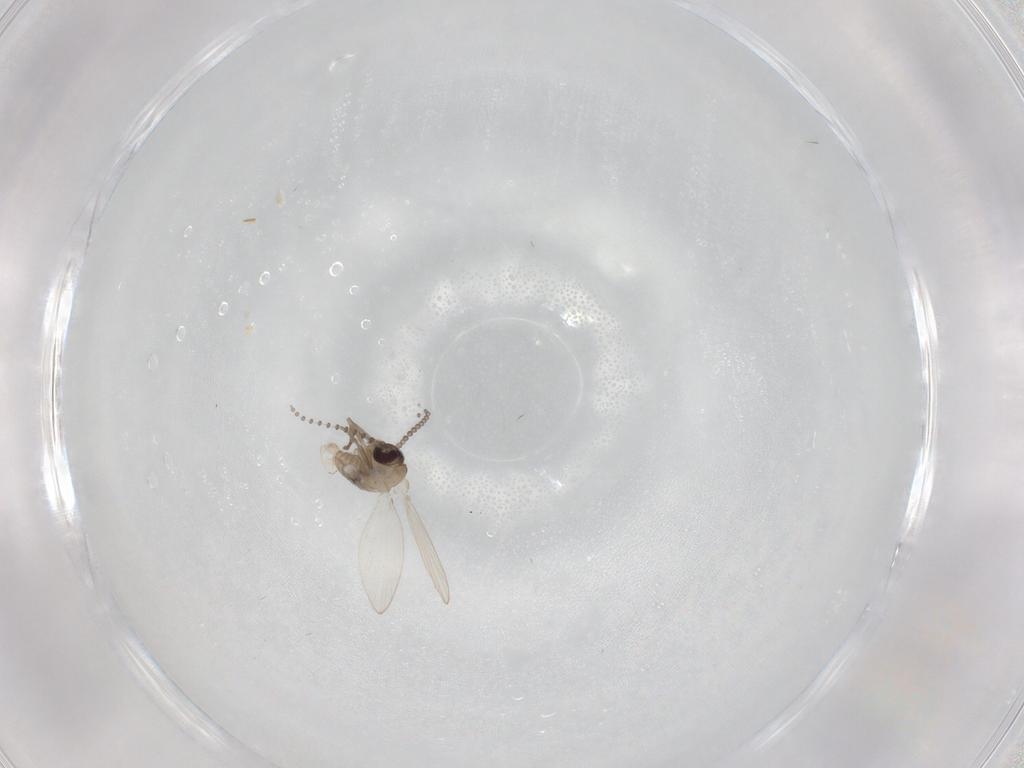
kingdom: Animalia
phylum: Arthropoda
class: Insecta
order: Diptera
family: Psychodidae
